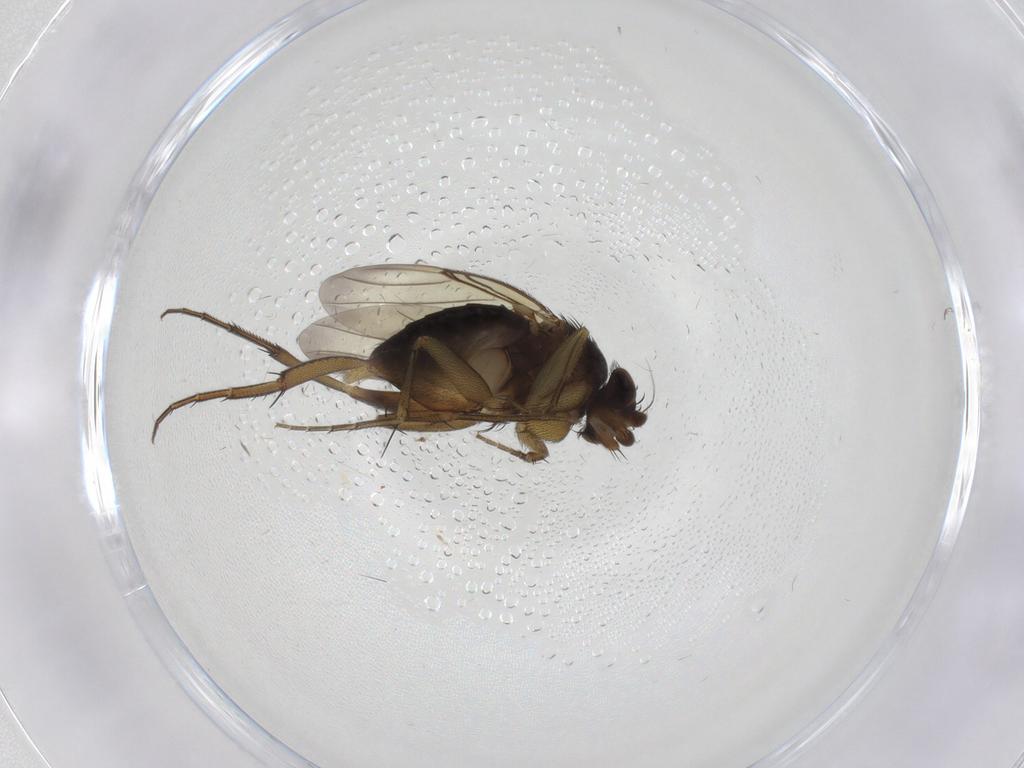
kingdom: Animalia
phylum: Arthropoda
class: Insecta
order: Diptera
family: Phoridae
